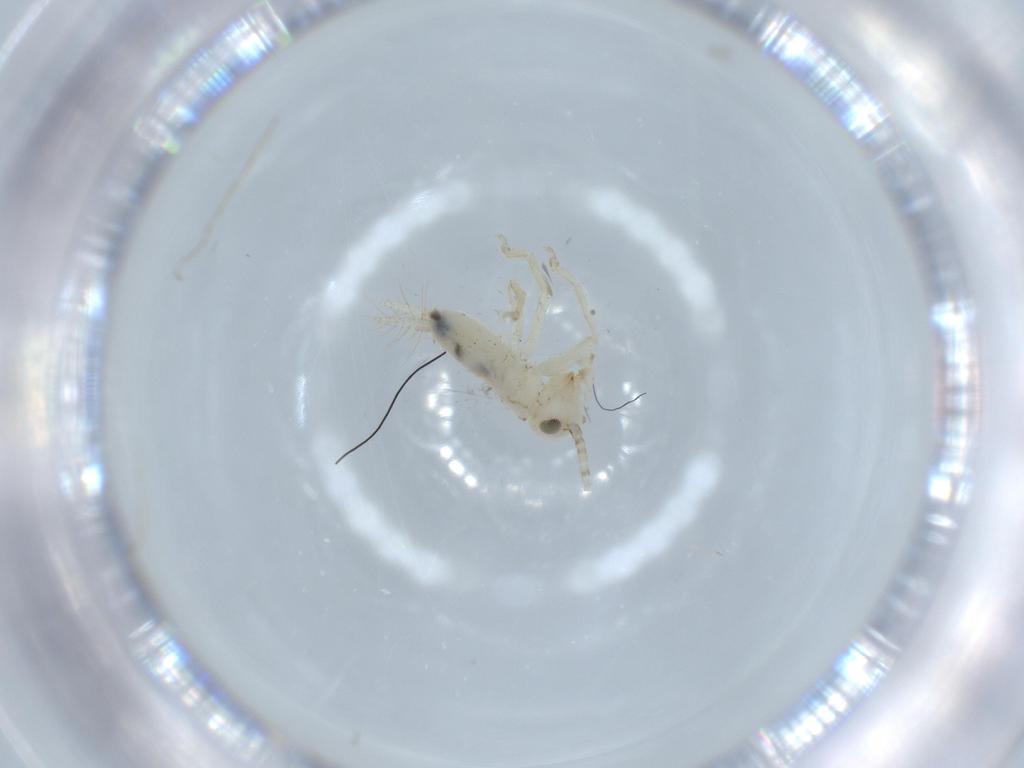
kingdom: Animalia
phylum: Arthropoda
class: Insecta
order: Orthoptera
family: Trigonidiidae
